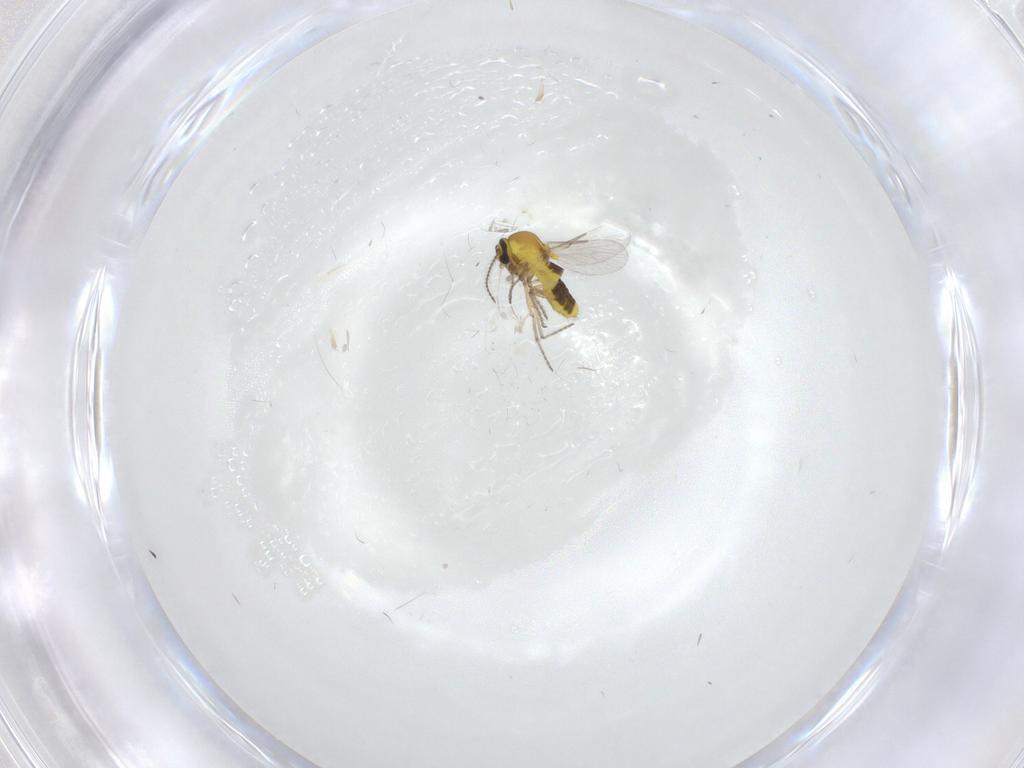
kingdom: Animalia
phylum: Arthropoda
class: Insecta
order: Diptera
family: Ceratopogonidae
